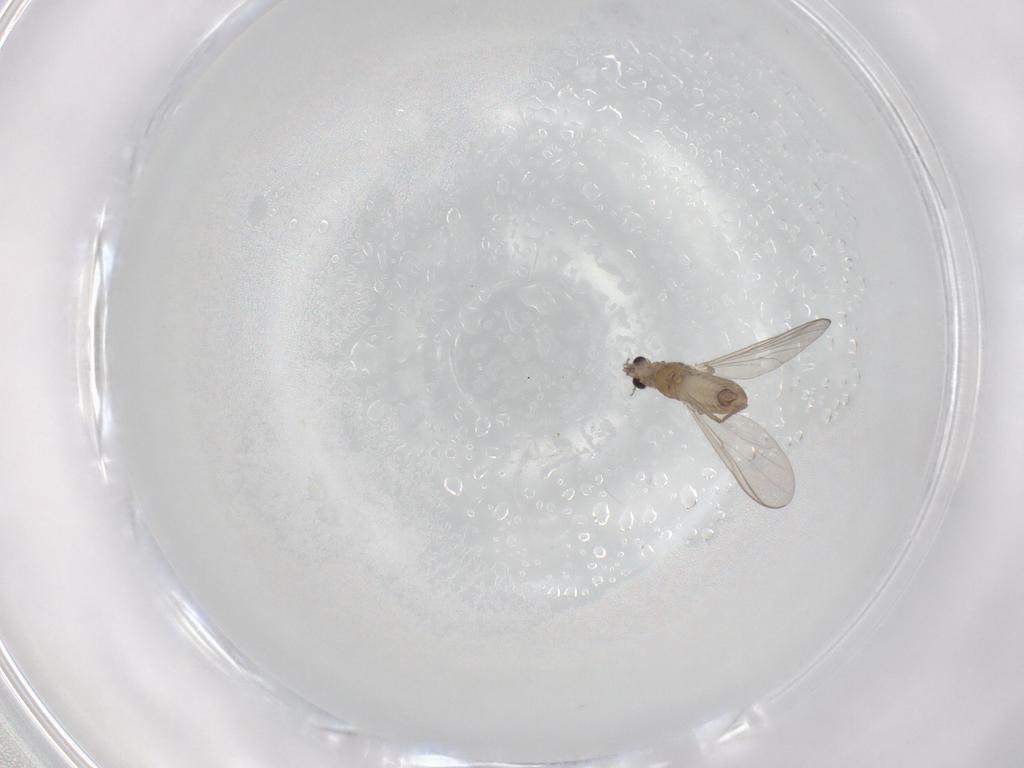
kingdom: Animalia
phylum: Arthropoda
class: Insecta
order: Diptera
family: Chironomidae
